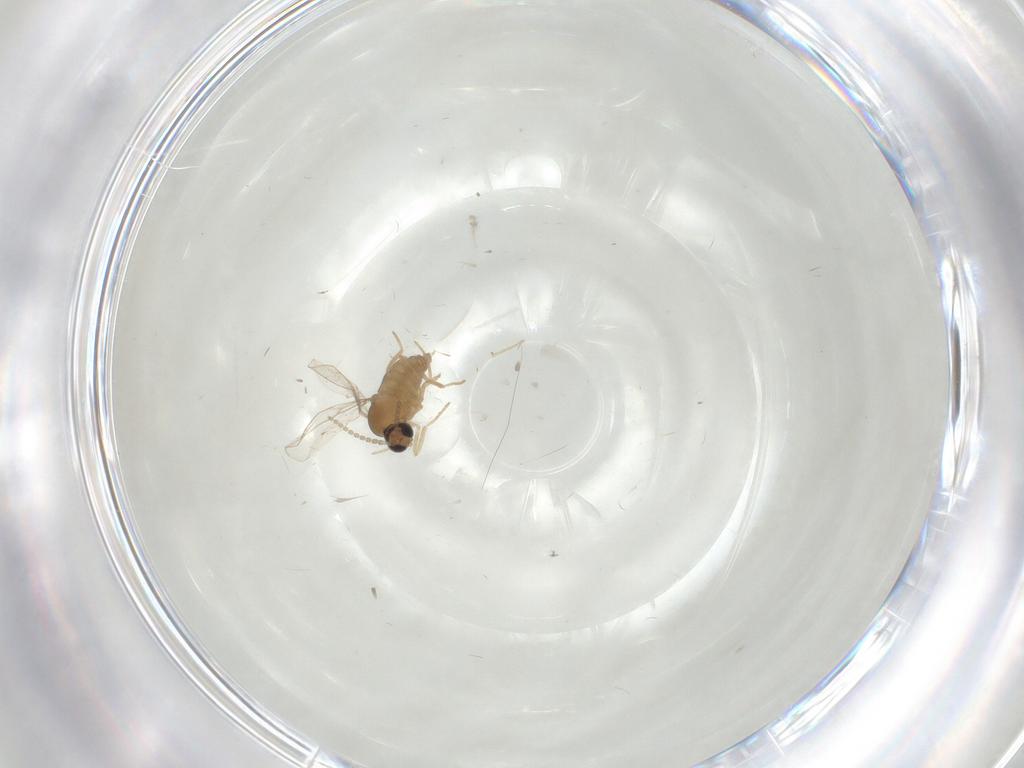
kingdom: Animalia
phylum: Arthropoda
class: Insecta
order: Diptera
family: Cecidomyiidae
